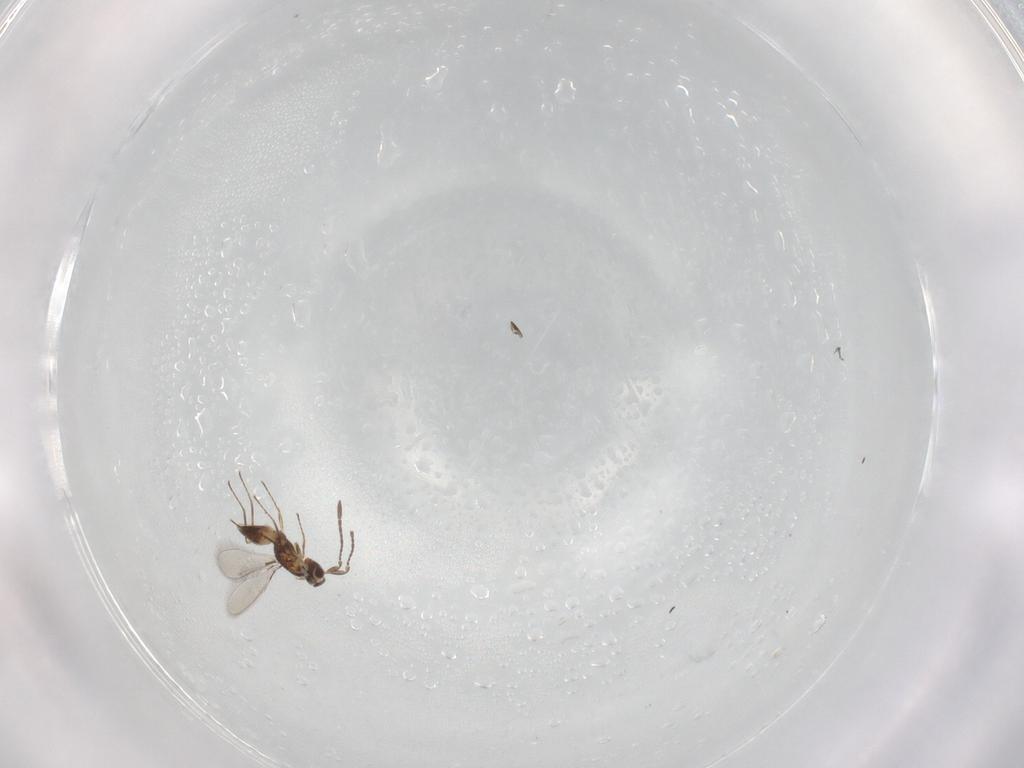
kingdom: Animalia
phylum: Arthropoda
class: Insecta
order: Hymenoptera
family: Mymaridae
